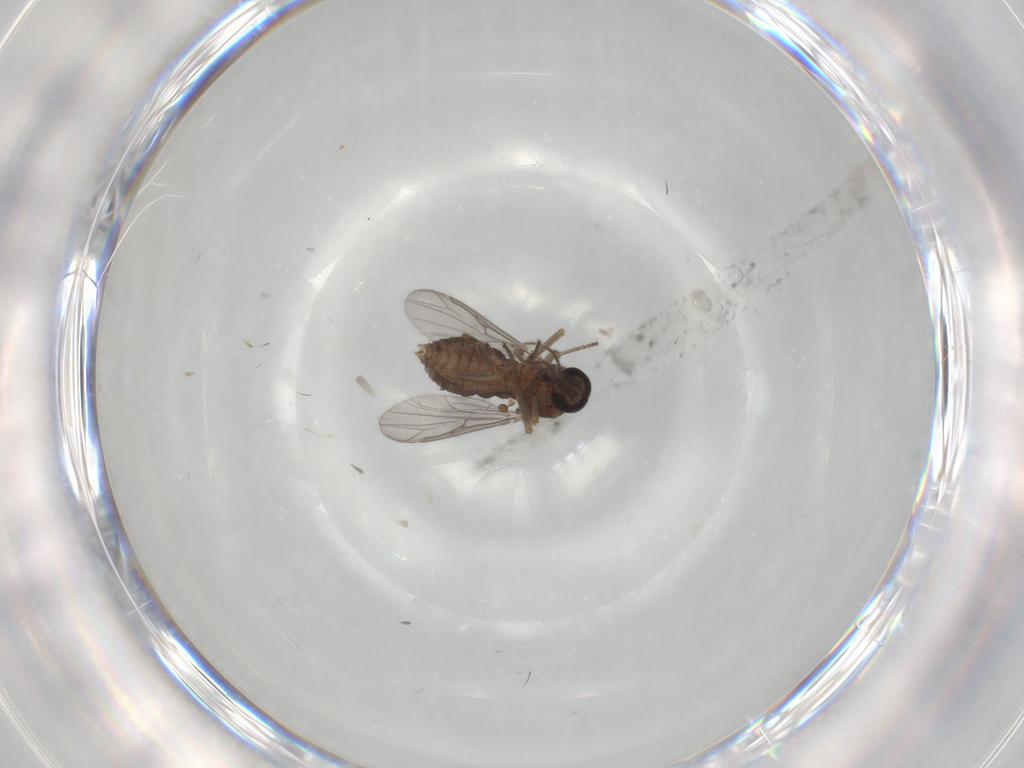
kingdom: Animalia
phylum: Arthropoda
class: Insecta
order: Diptera
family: Ceratopogonidae
